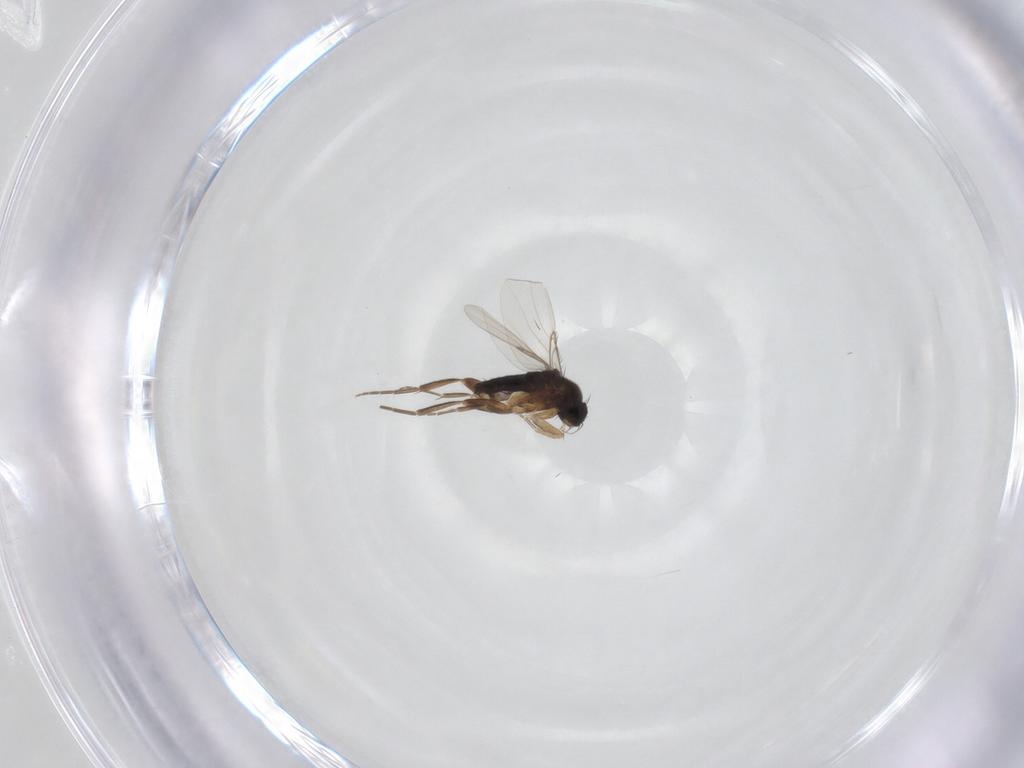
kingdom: Animalia
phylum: Arthropoda
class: Insecta
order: Diptera
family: Phoridae
